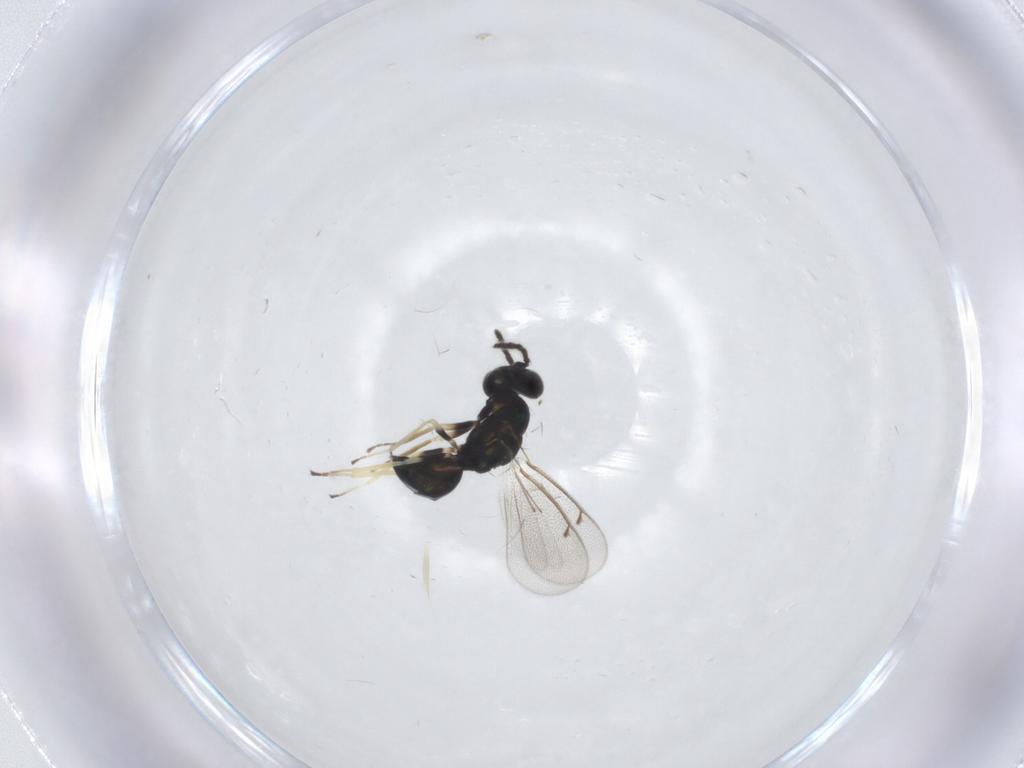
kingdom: Animalia
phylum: Arthropoda
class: Insecta
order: Hymenoptera
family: Eulophidae
